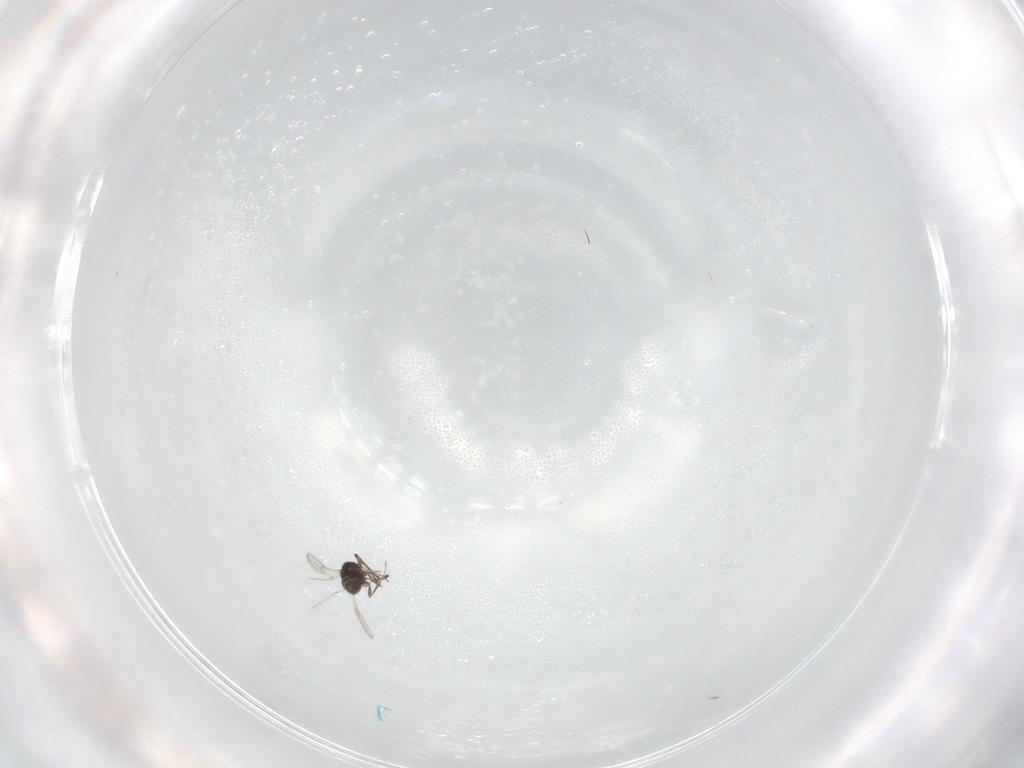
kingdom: Animalia
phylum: Arthropoda
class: Insecta
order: Hymenoptera
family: Scelionidae
